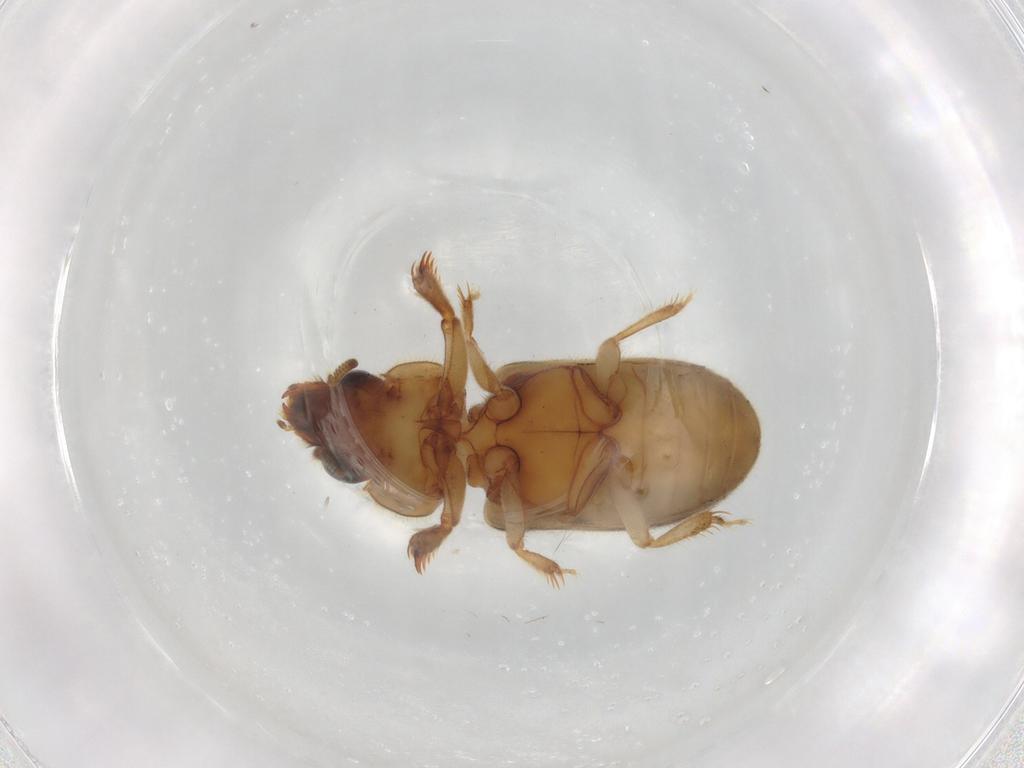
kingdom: Animalia
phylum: Arthropoda
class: Insecta
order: Coleoptera
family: Heteroceridae
